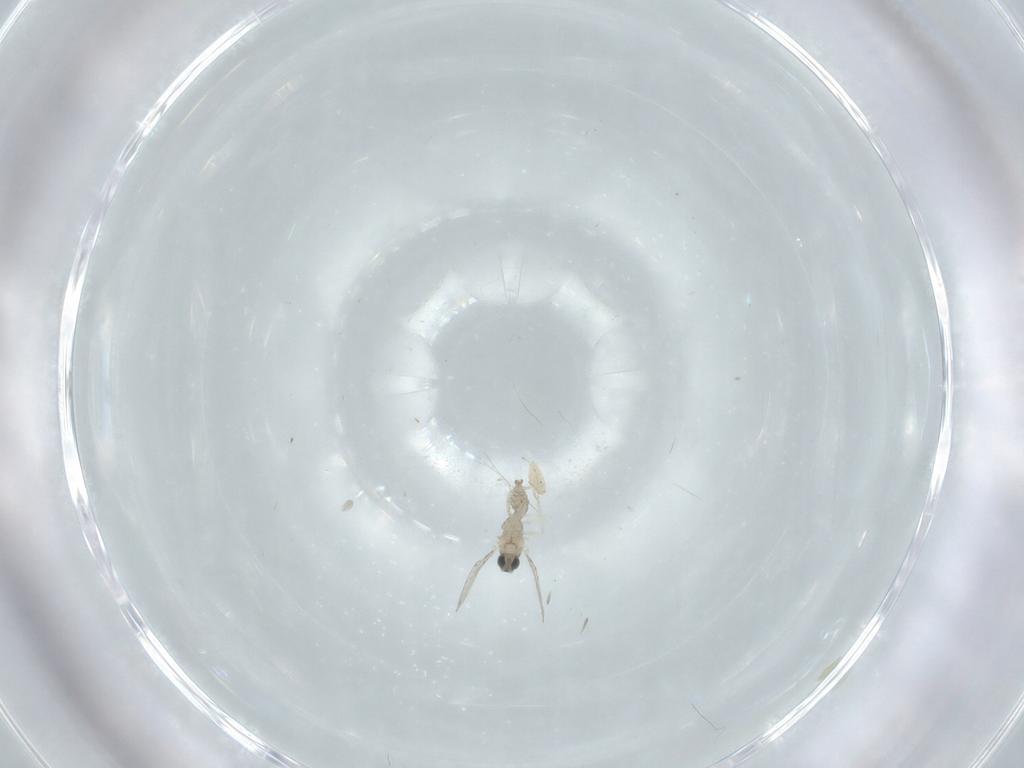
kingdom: Animalia
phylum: Arthropoda
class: Insecta
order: Diptera
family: Cecidomyiidae
